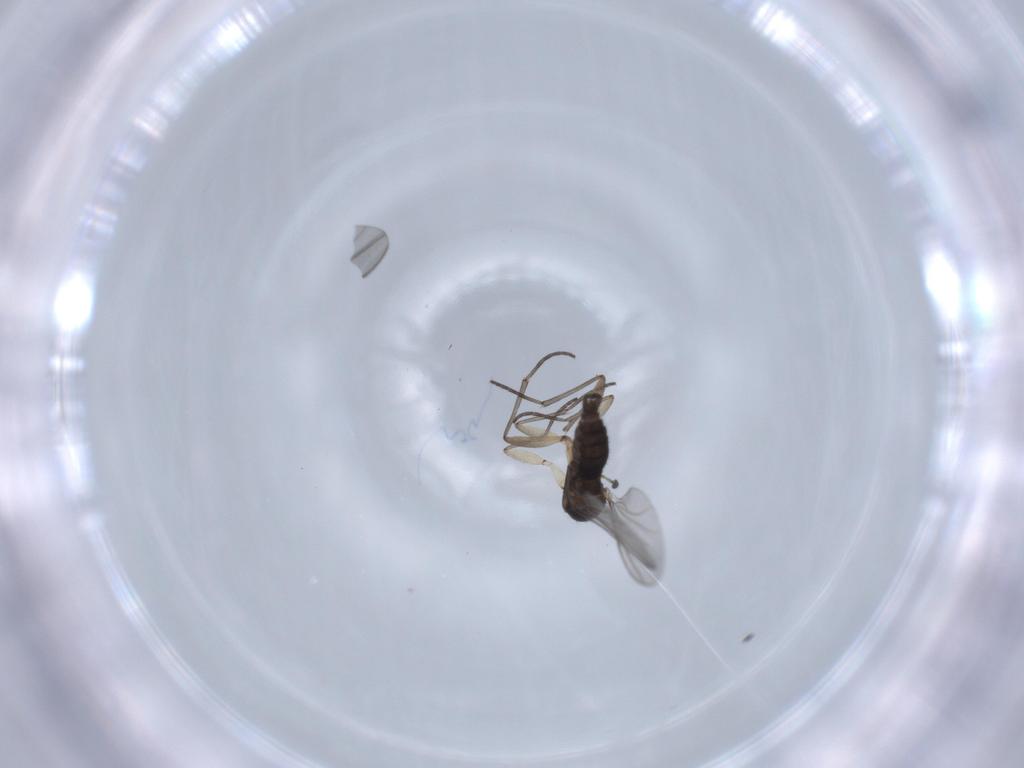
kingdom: Animalia
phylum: Arthropoda
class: Insecta
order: Diptera
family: Sciaridae
